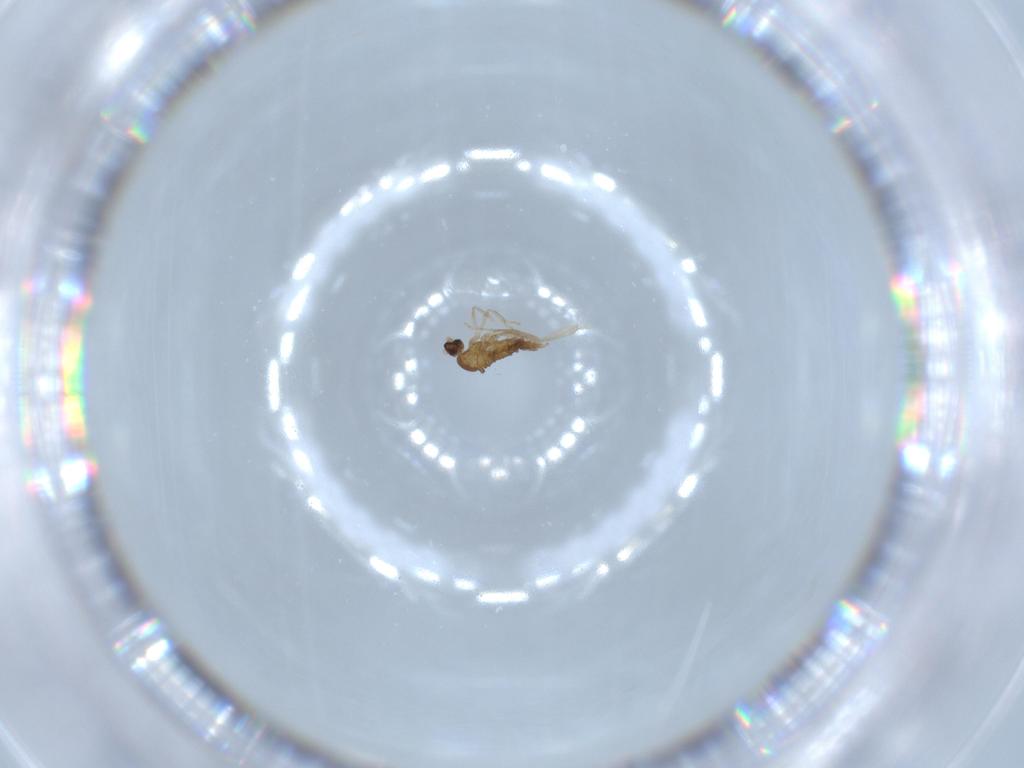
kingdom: Animalia
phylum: Arthropoda
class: Insecta
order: Diptera
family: Cecidomyiidae
